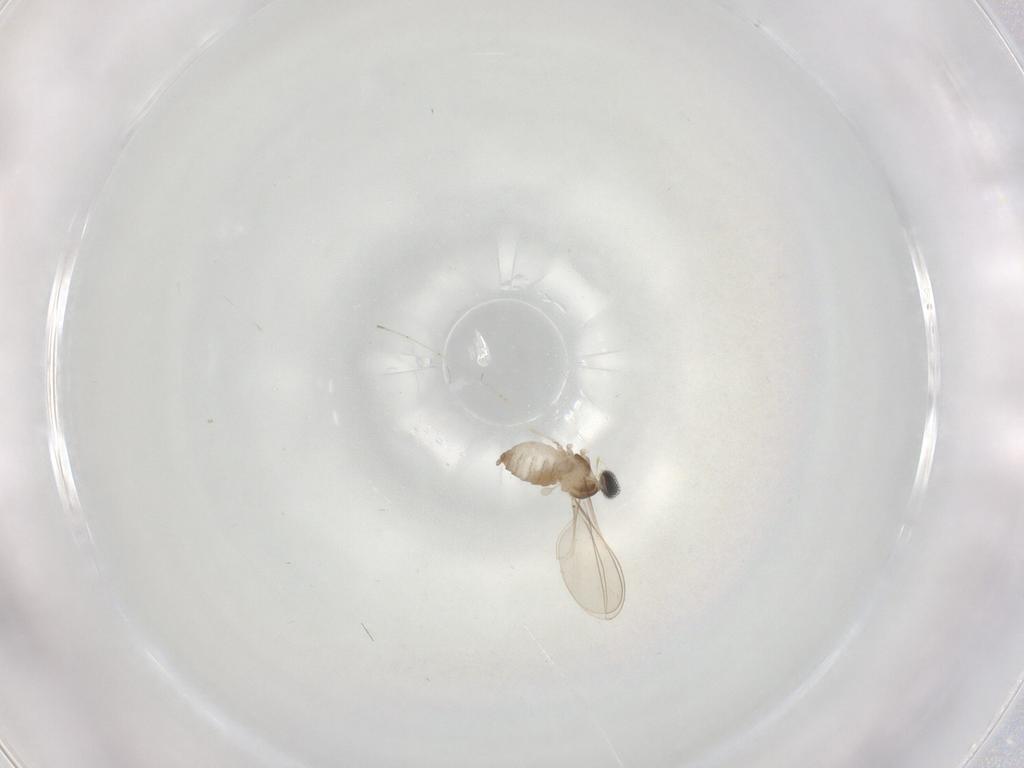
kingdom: Animalia
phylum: Arthropoda
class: Insecta
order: Diptera
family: Cecidomyiidae
